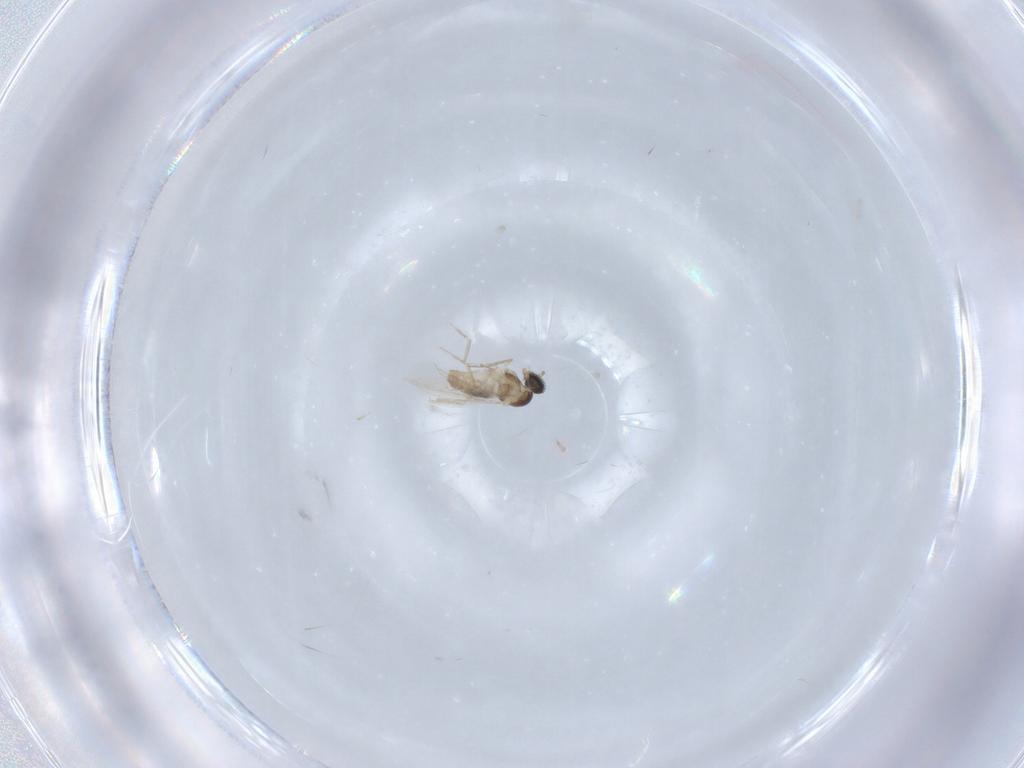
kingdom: Animalia
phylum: Arthropoda
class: Insecta
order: Diptera
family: Cecidomyiidae
